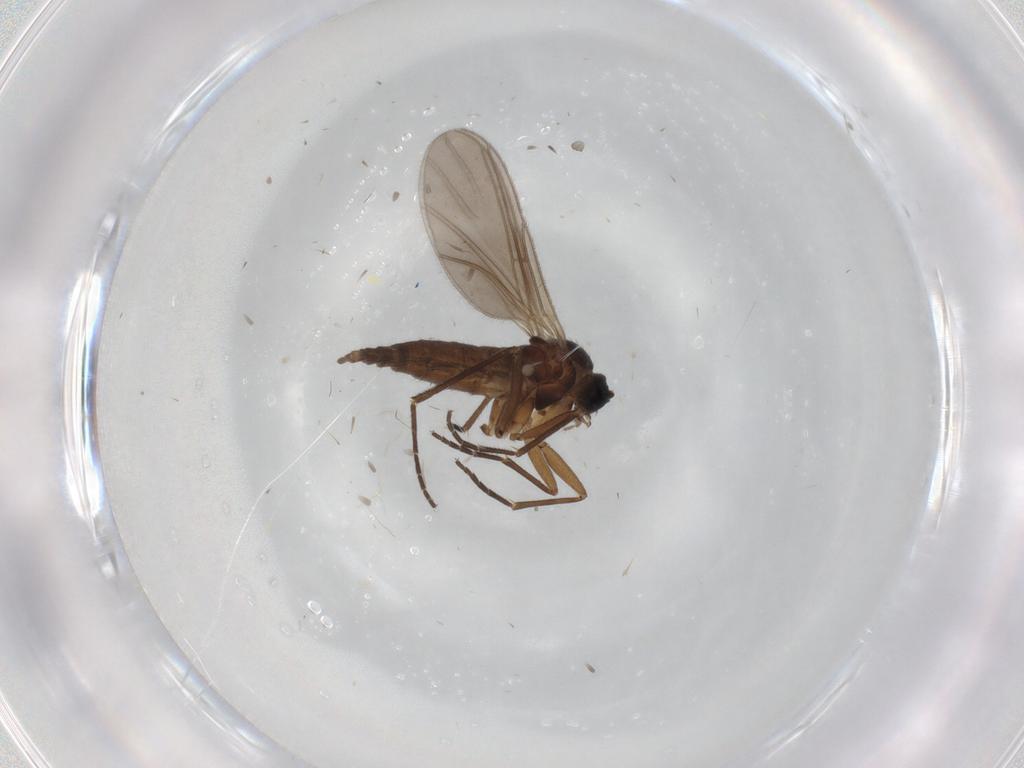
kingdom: Animalia
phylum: Arthropoda
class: Insecta
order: Diptera
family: Sciaridae
